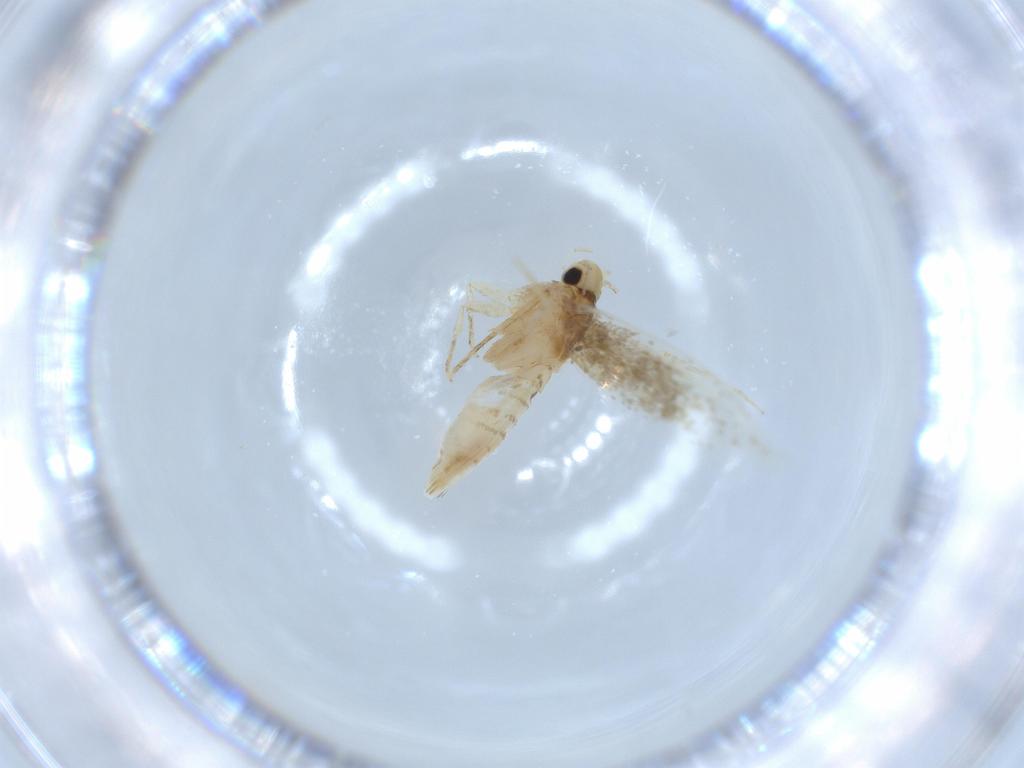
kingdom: Animalia
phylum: Arthropoda
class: Insecta
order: Lepidoptera
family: Tineidae
